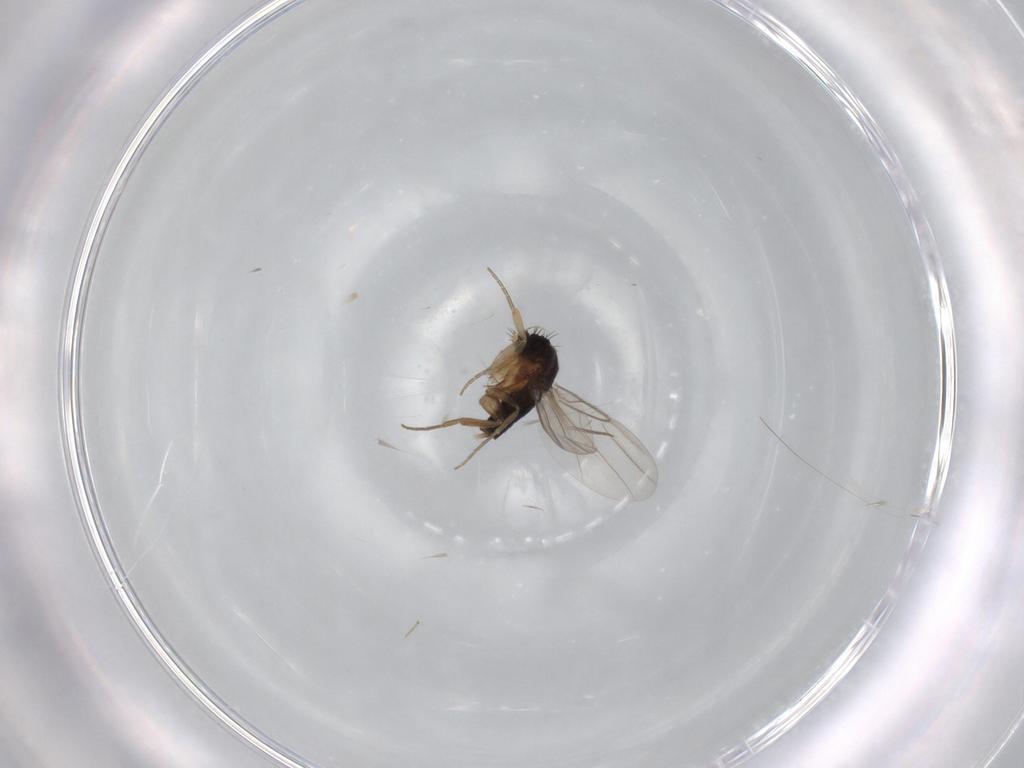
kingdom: Animalia
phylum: Arthropoda
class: Insecta
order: Diptera
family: Phoridae
